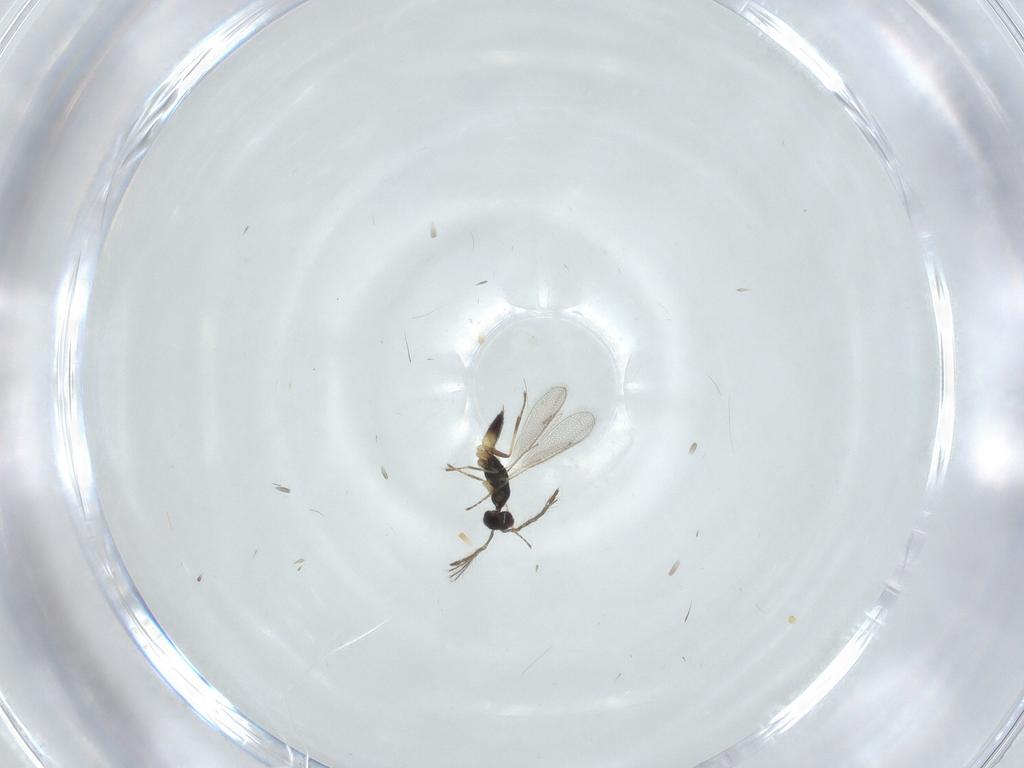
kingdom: Animalia
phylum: Arthropoda
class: Insecta
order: Hymenoptera
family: Eulophidae
